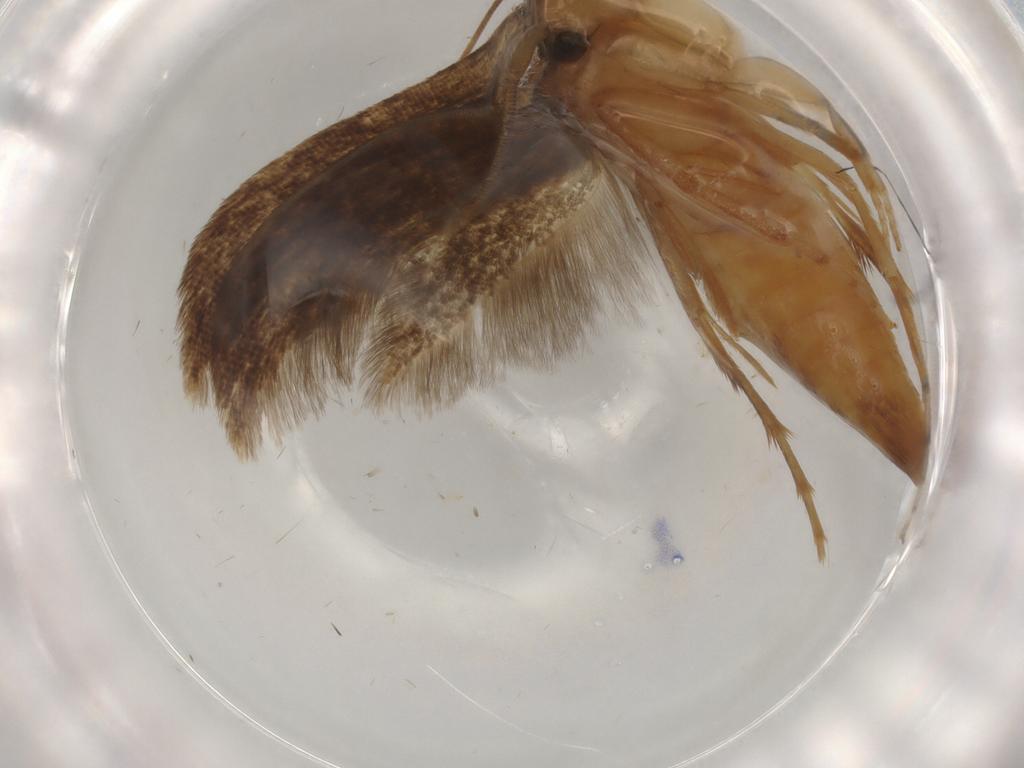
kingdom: Animalia
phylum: Arthropoda
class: Insecta
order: Lepidoptera
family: Tineidae
